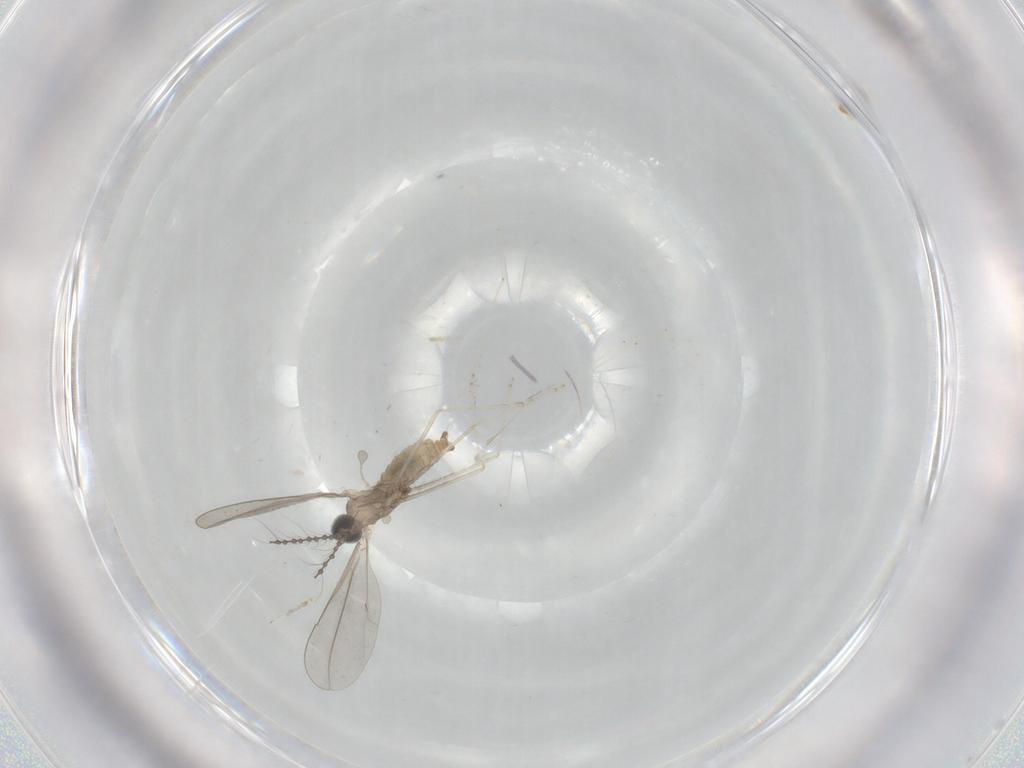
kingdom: Animalia
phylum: Arthropoda
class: Insecta
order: Diptera
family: Cecidomyiidae
